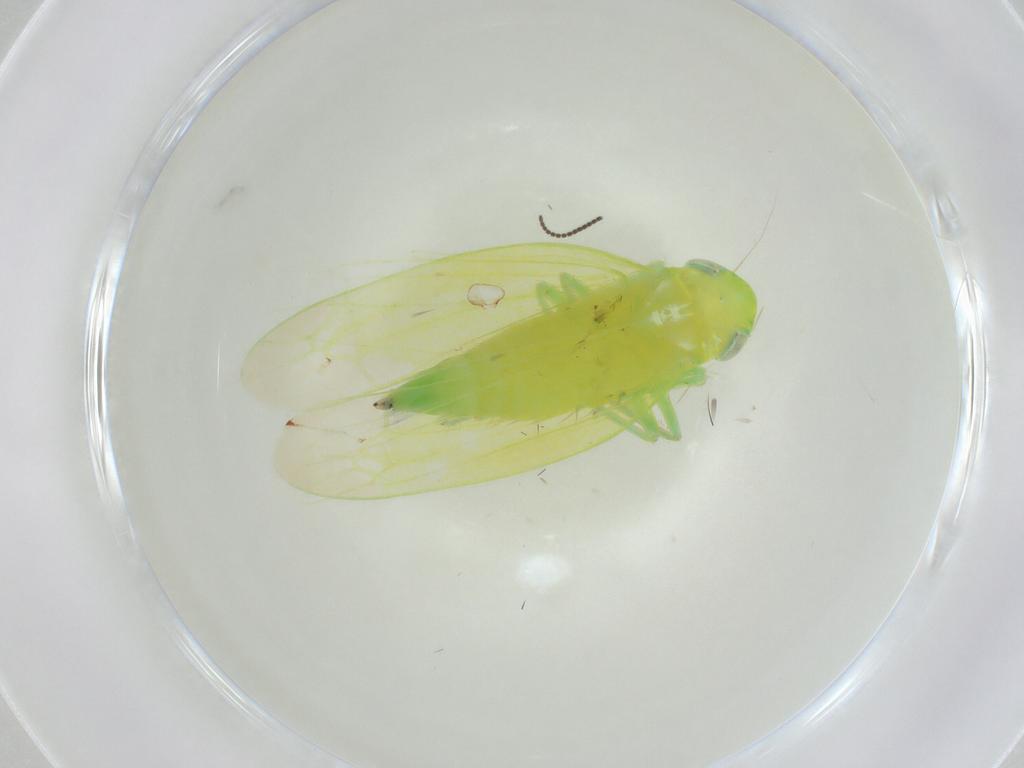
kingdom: Animalia
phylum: Arthropoda
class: Insecta
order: Hemiptera
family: Cicadellidae
